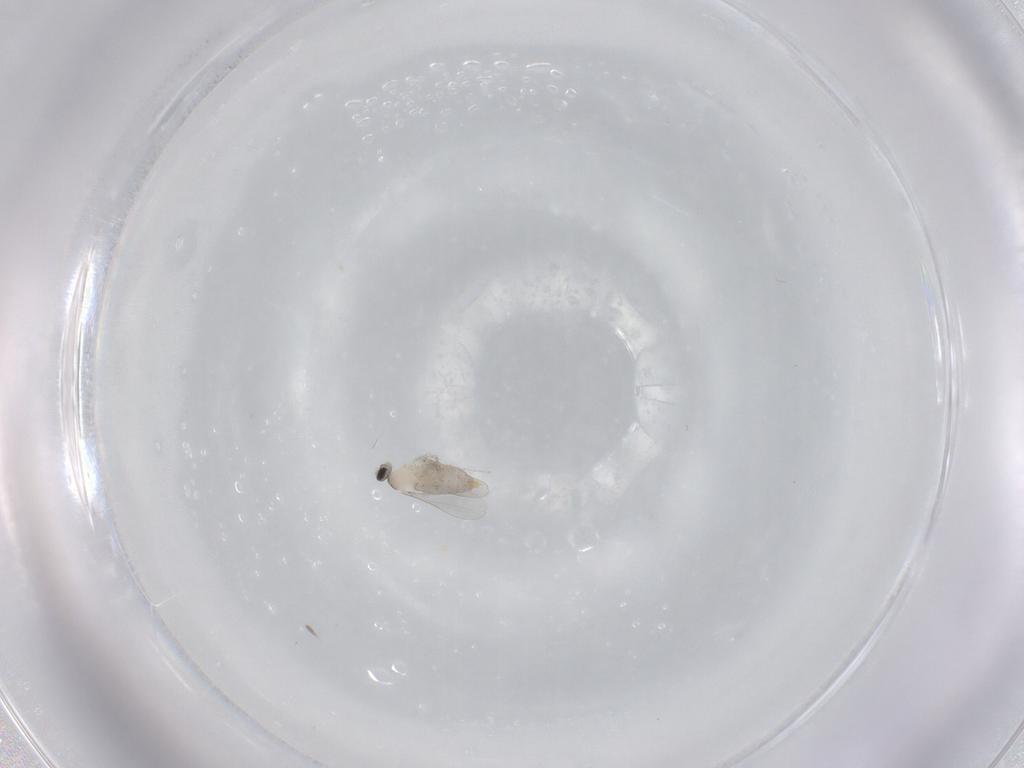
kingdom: Animalia
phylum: Arthropoda
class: Insecta
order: Diptera
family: Cecidomyiidae
